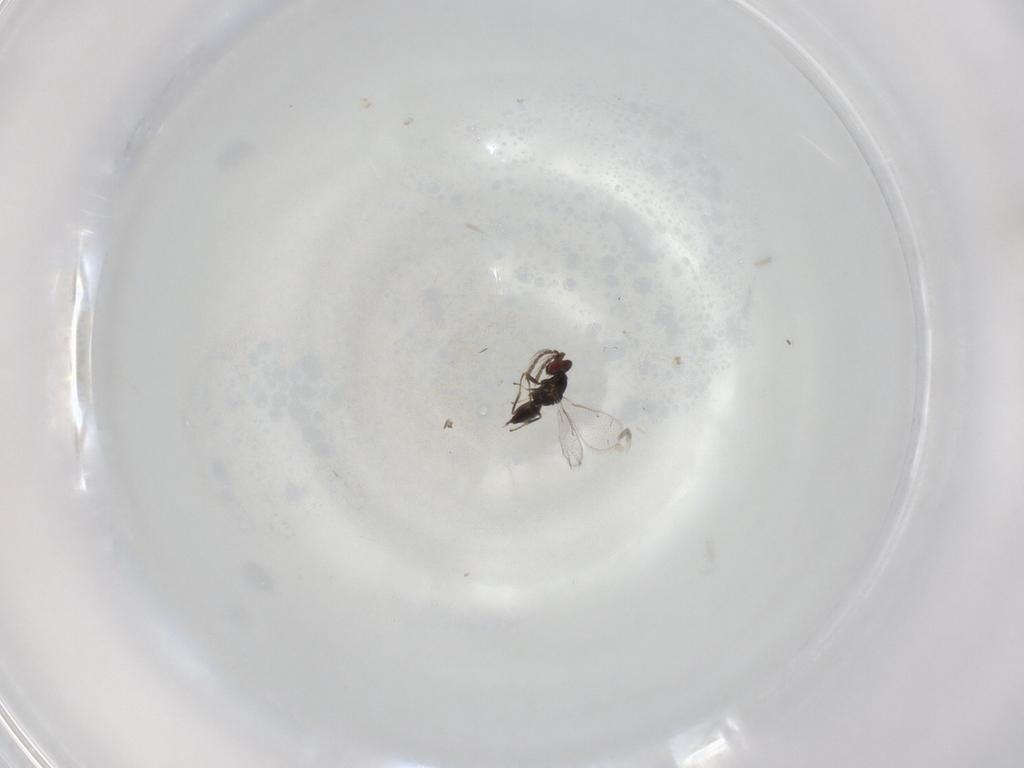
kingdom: Animalia
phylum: Arthropoda
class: Insecta
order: Hymenoptera
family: Eulophidae
